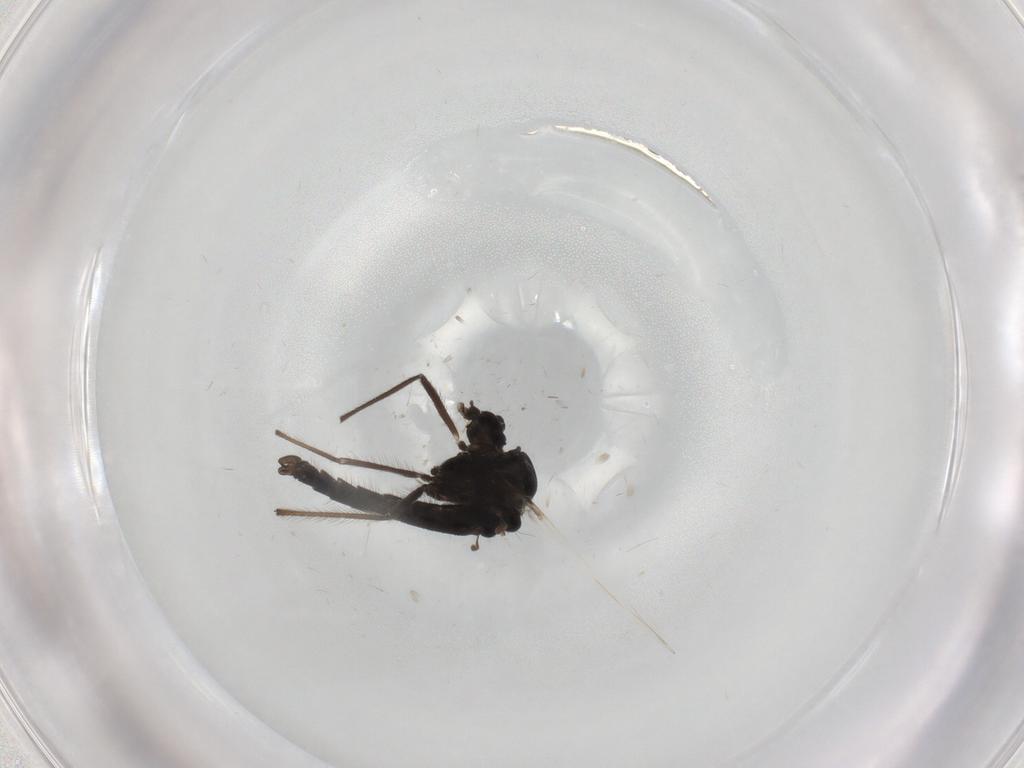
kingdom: Animalia
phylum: Arthropoda
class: Insecta
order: Diptera
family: Chironomidae
